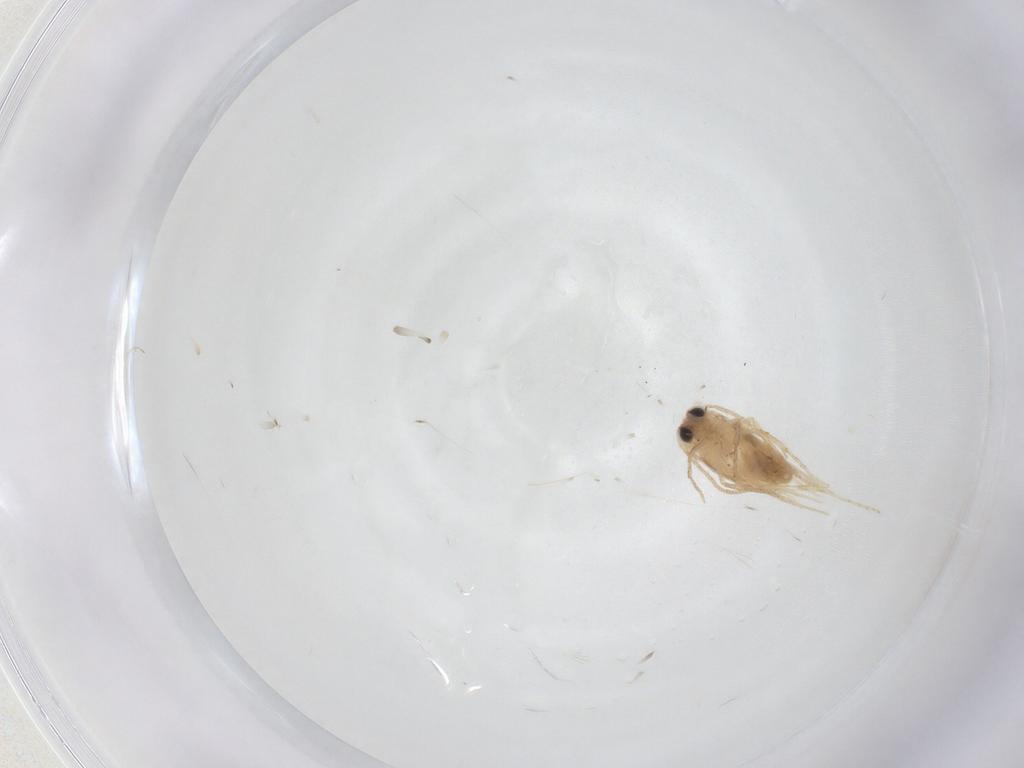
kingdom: Animalia
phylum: Arthropoda
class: Insecta
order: Lepidoptera
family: Nepticulidae
